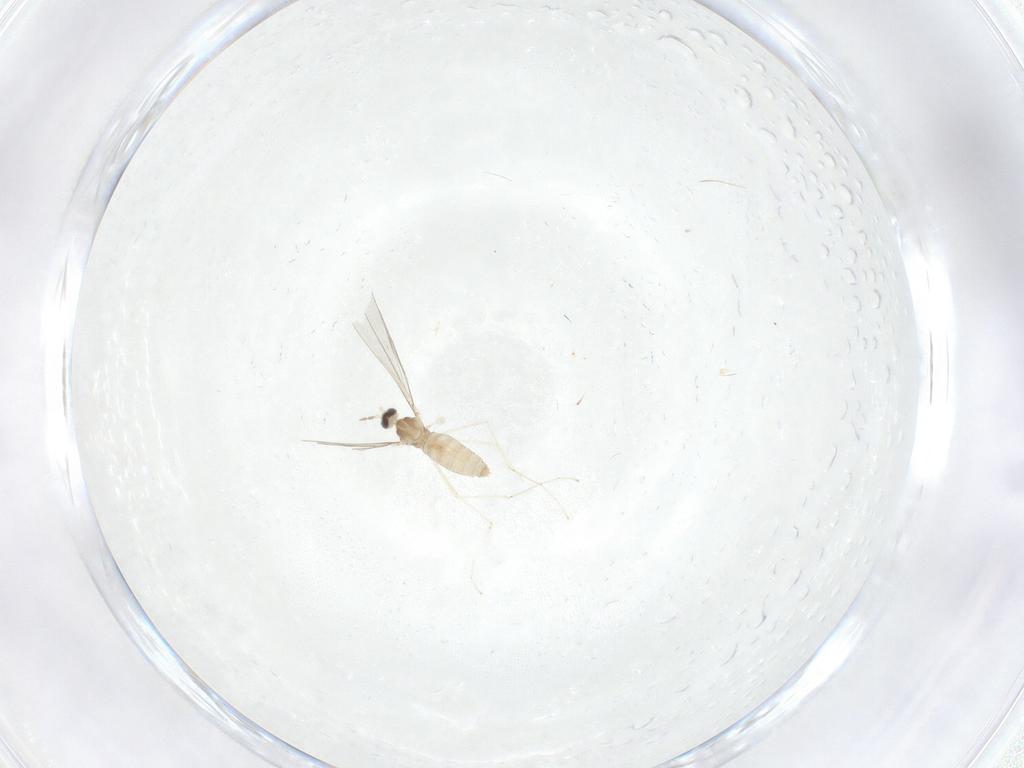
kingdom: Animalia
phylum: Arthropoda
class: Insecta
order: Diptera
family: Cecidomyiidae
